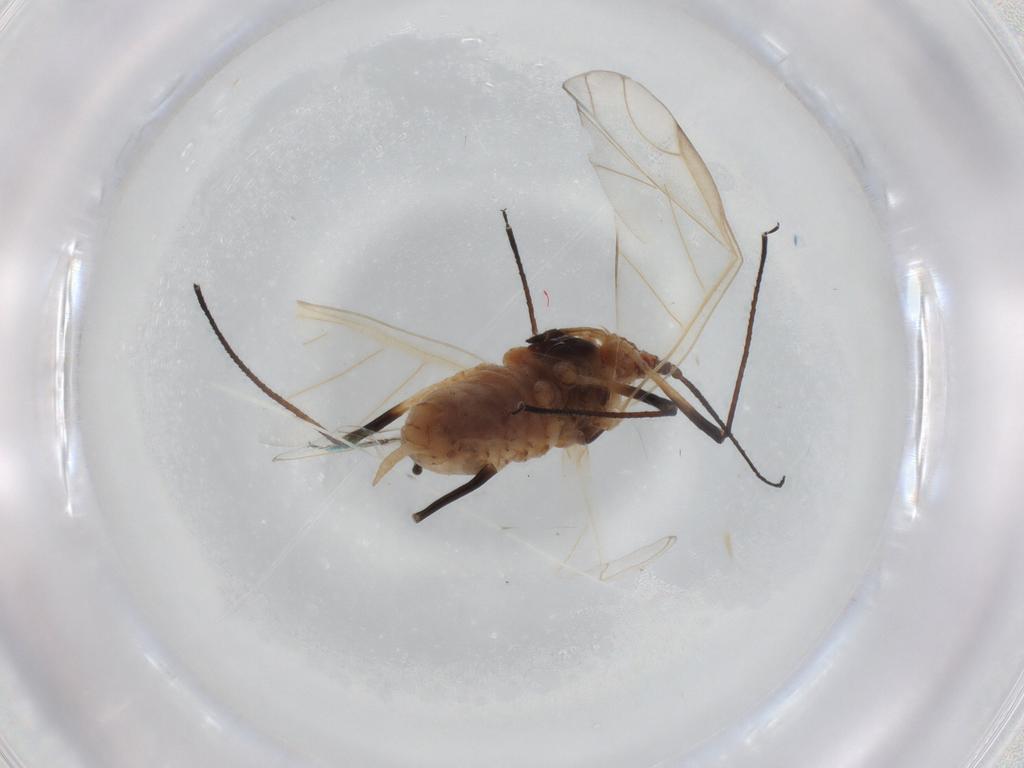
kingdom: Animalia
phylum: Arthropoda
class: Insecta
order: Hemiptera
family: Aphididae
